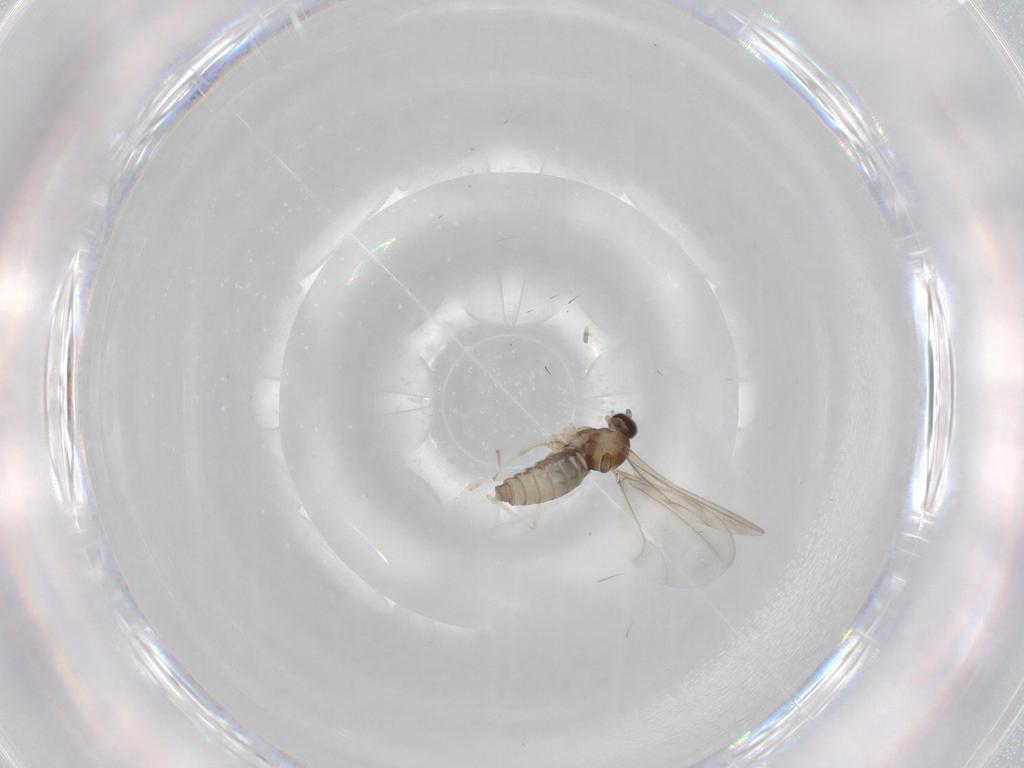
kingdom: Animalia
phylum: Arthropoda
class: Insecta
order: Diptera
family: Cecidomyiidae
